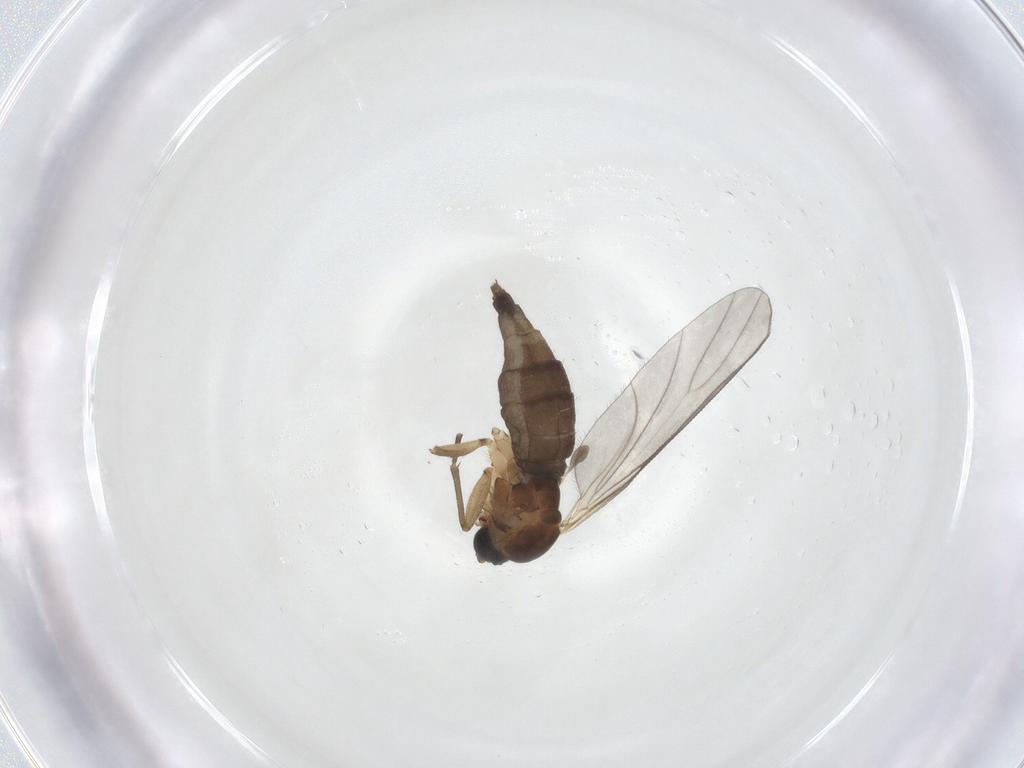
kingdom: Animalia
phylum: Arthropoda
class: Insecta
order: Diptera
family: Sciaridae
